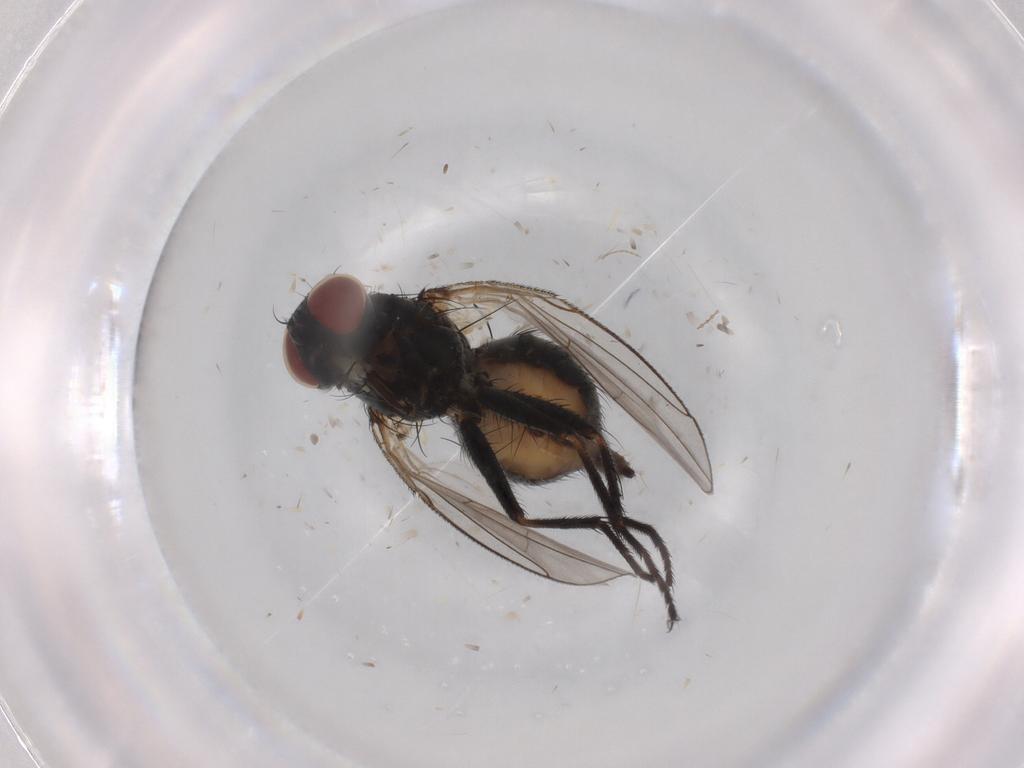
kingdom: Animalia
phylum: Arthropoda
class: Insecta
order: Diptera
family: Muscidae
